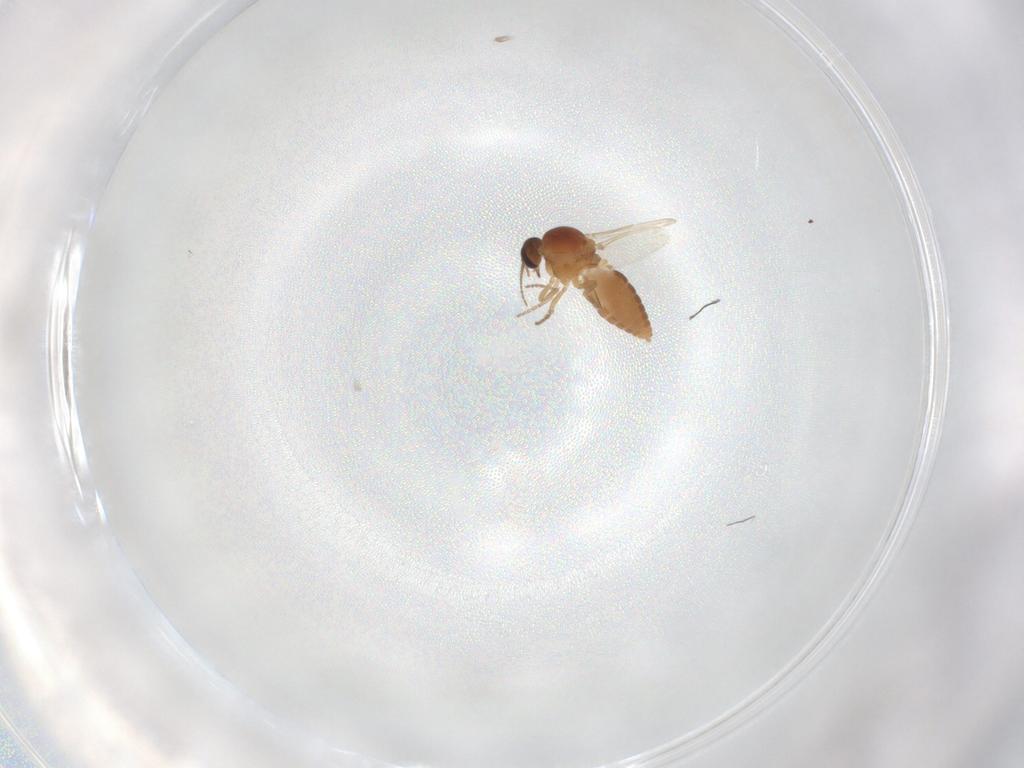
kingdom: Animalia
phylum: Arthropoda
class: Insecta
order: Diptera
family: Ceratopogonidae
